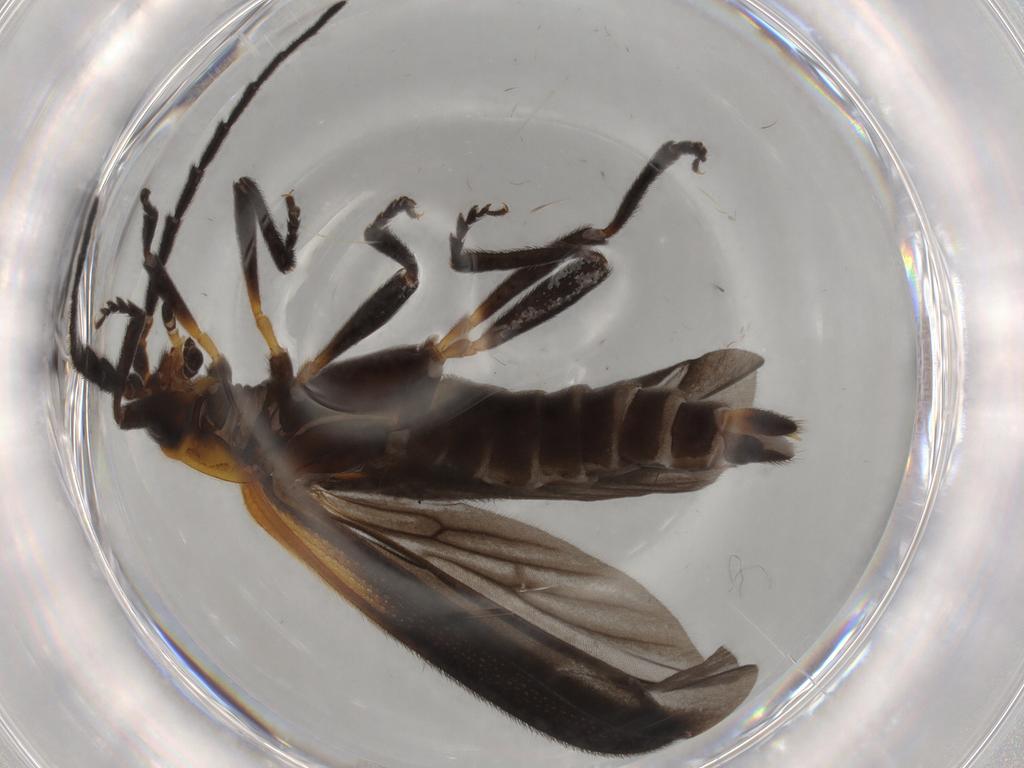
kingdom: Animalia
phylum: Arthropoda
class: Insecta
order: Coleoptera
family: Lycidae
